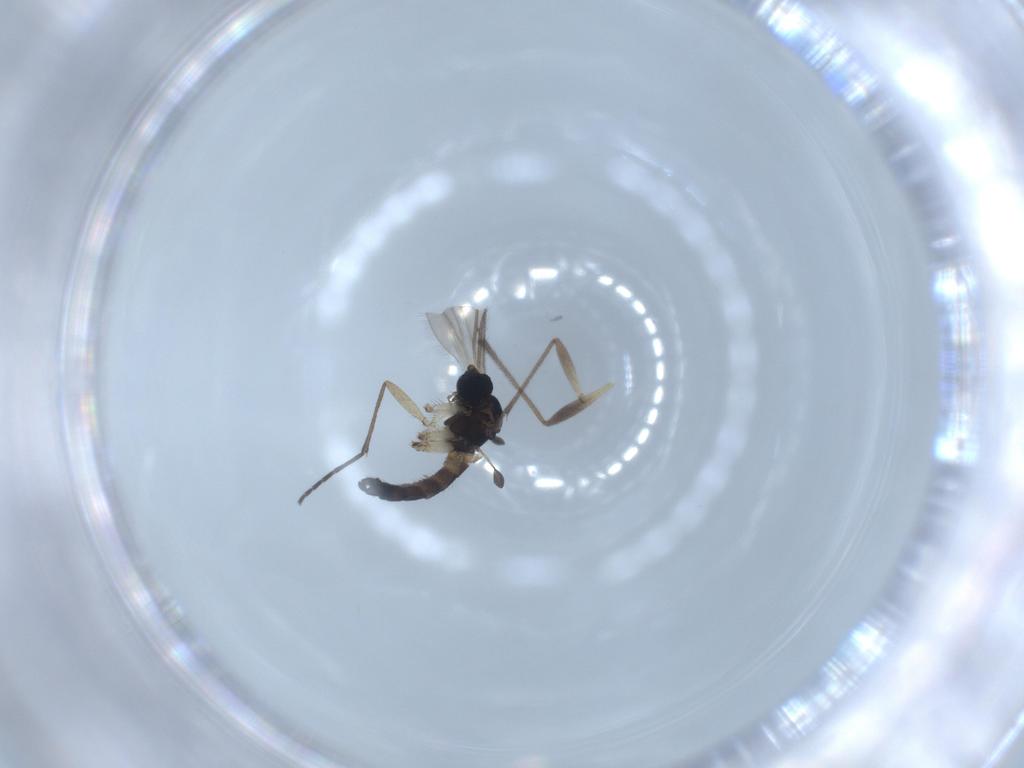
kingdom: Animalia
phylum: Arthropoda
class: Insecta
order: Diptera
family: Sciaridae
